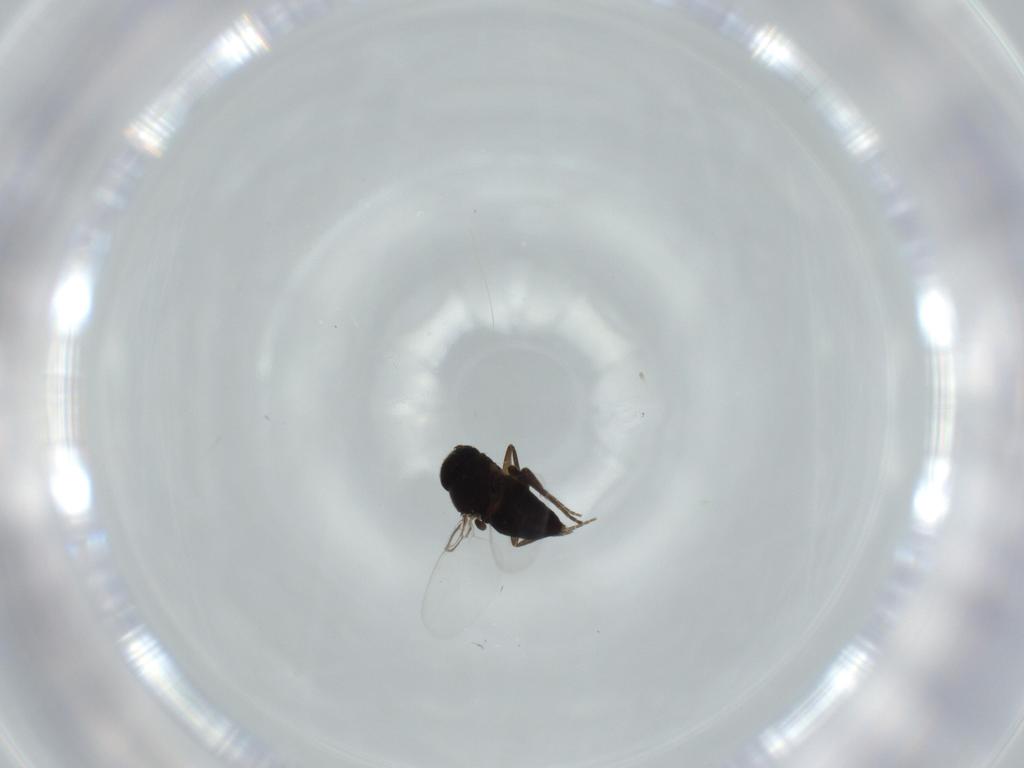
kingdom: Animalia
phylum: Arthropoda
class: Insecta
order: Diptera
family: Phoridae
